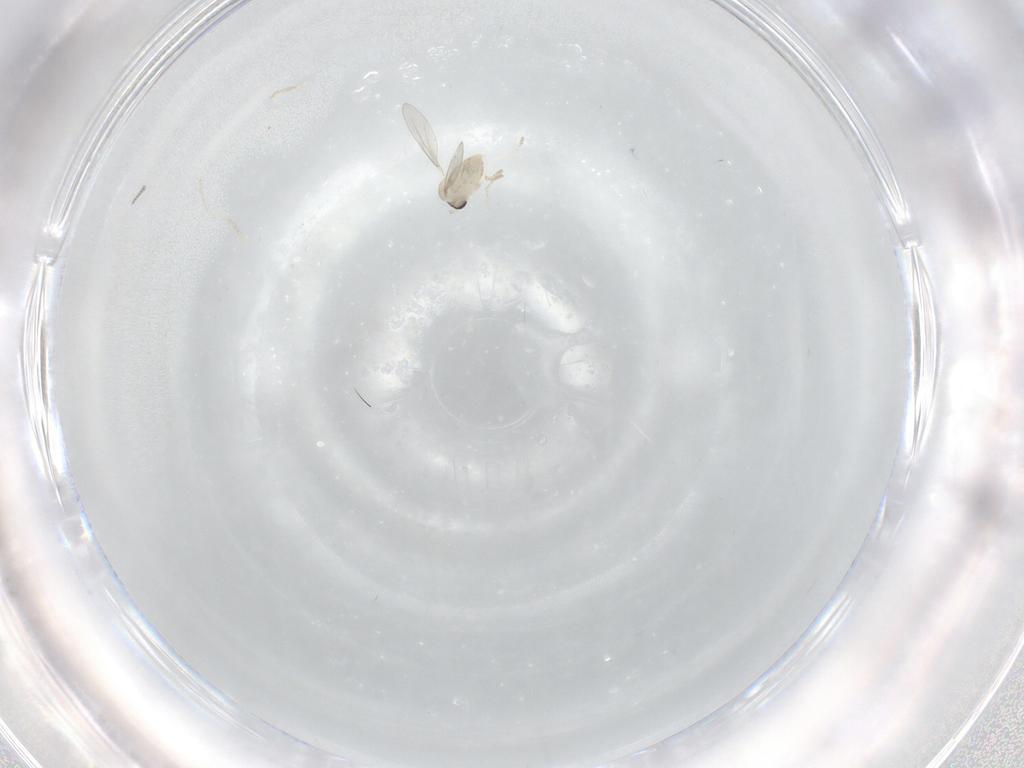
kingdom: Animalia
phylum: Arthropoda
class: Insecta
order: Diptera
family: Cecidomyiidae
